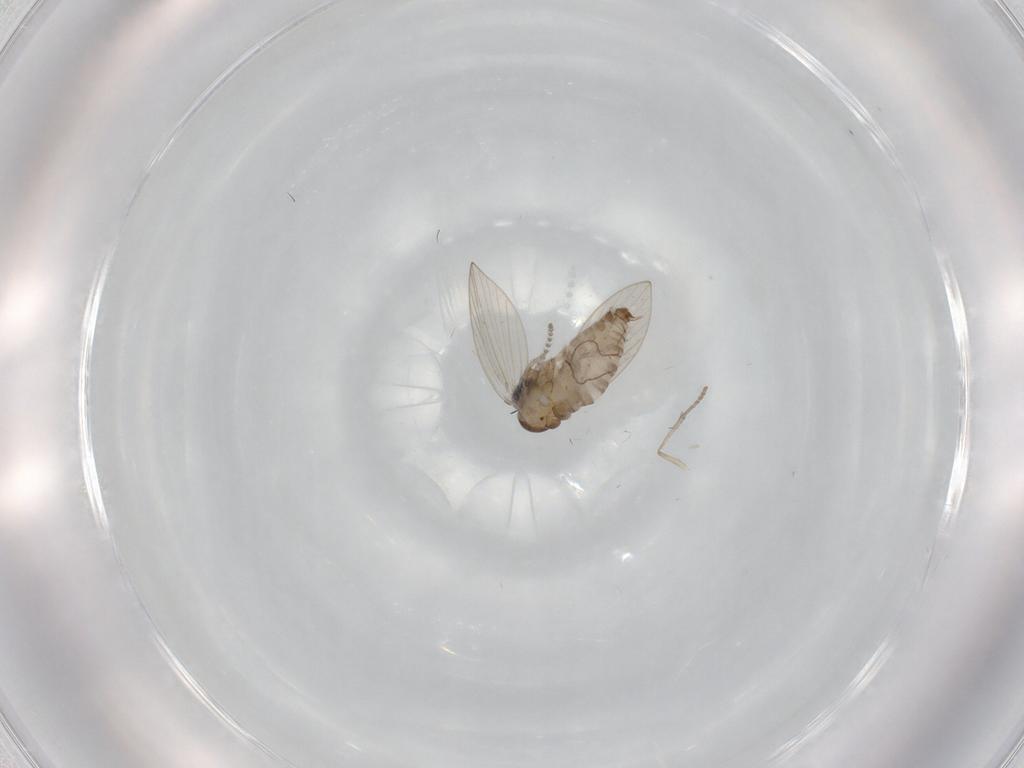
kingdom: Animalia
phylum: Arthropoda
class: Insecta
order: Diptera
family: Psychodidae
